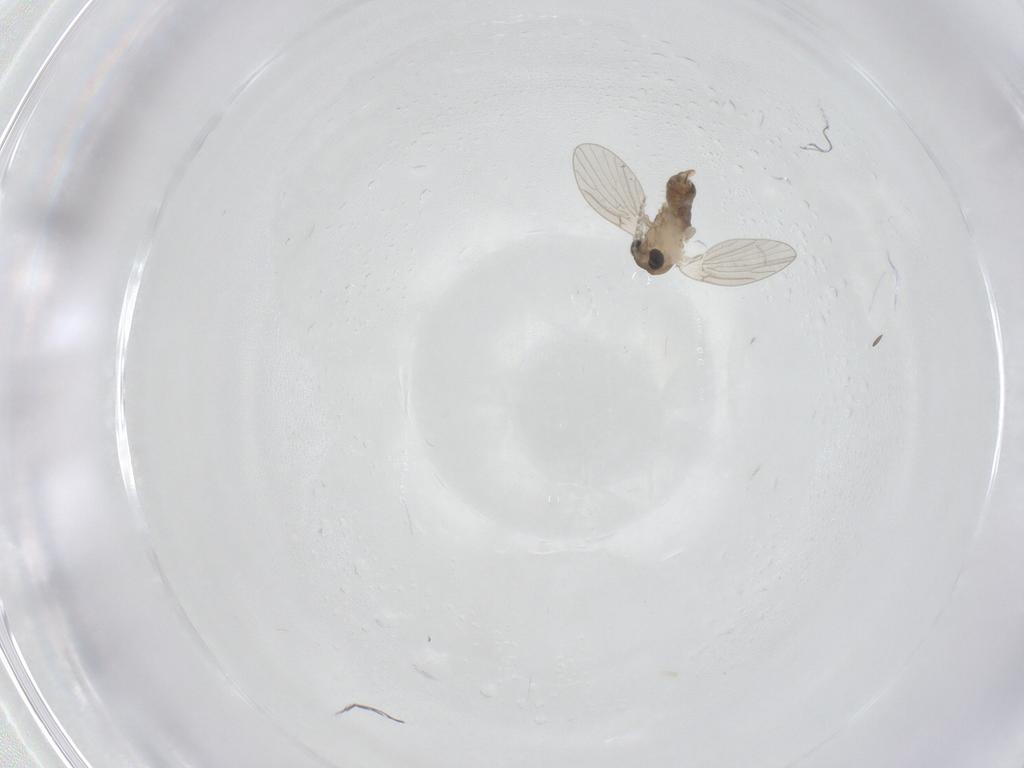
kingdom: Animalia
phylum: Arthropoda
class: Insecta
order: Diptera
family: Psychodidae
